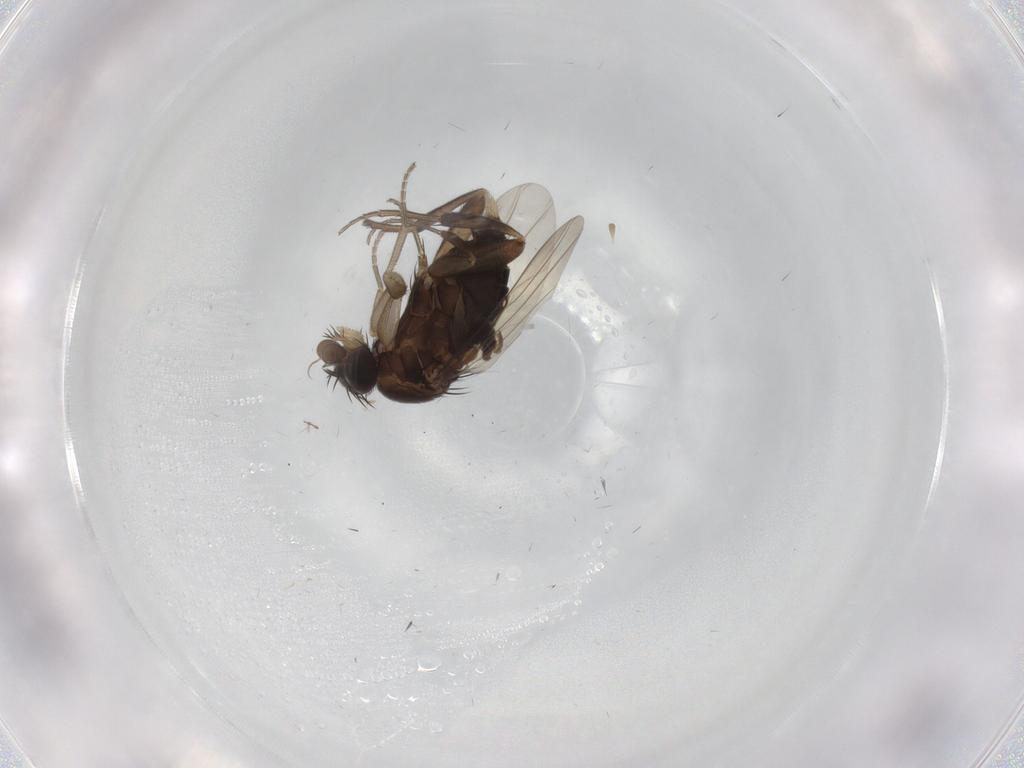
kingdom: Animalia
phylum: Arthropoda
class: Insecta
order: Diptera
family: Phoridae
